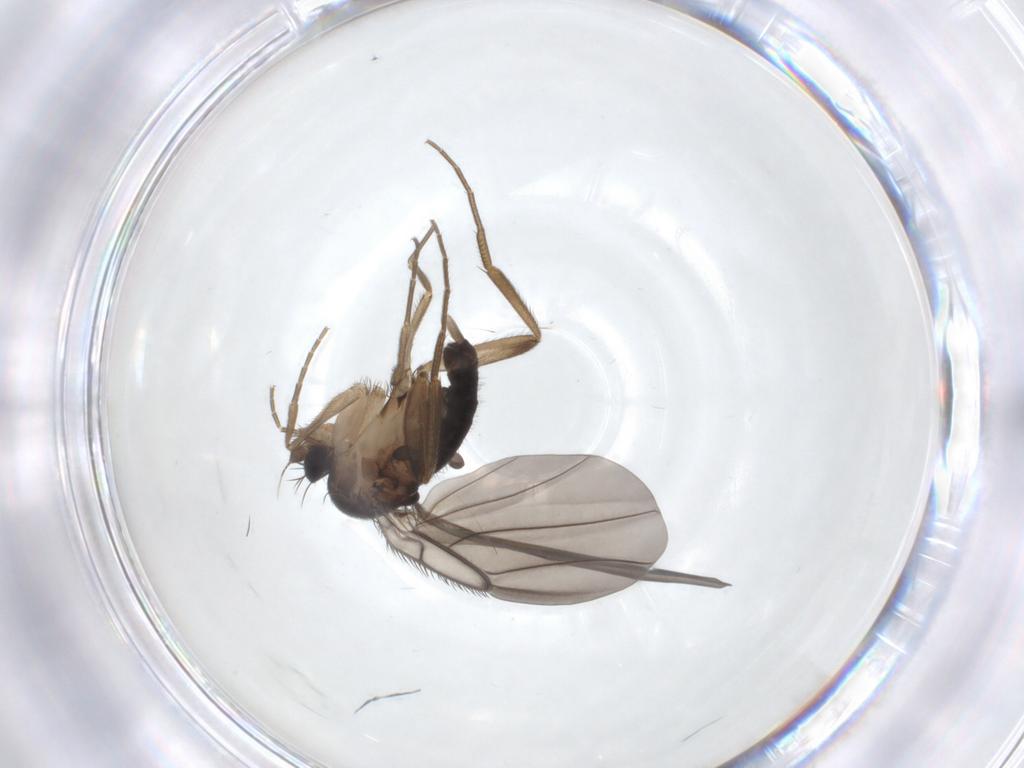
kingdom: Animalia
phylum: Arthropoda
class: Insecta
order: Diptera
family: Phoridae
